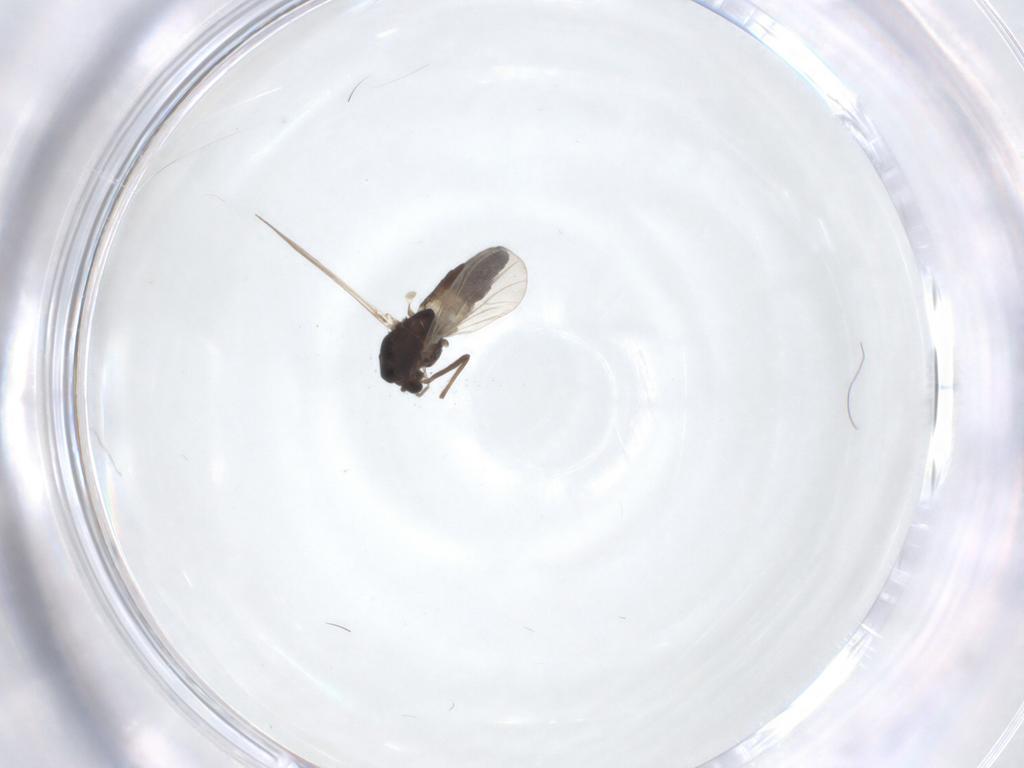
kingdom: Animalia
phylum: Arthropoda
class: Insecta
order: Diptera
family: Chironomidae
